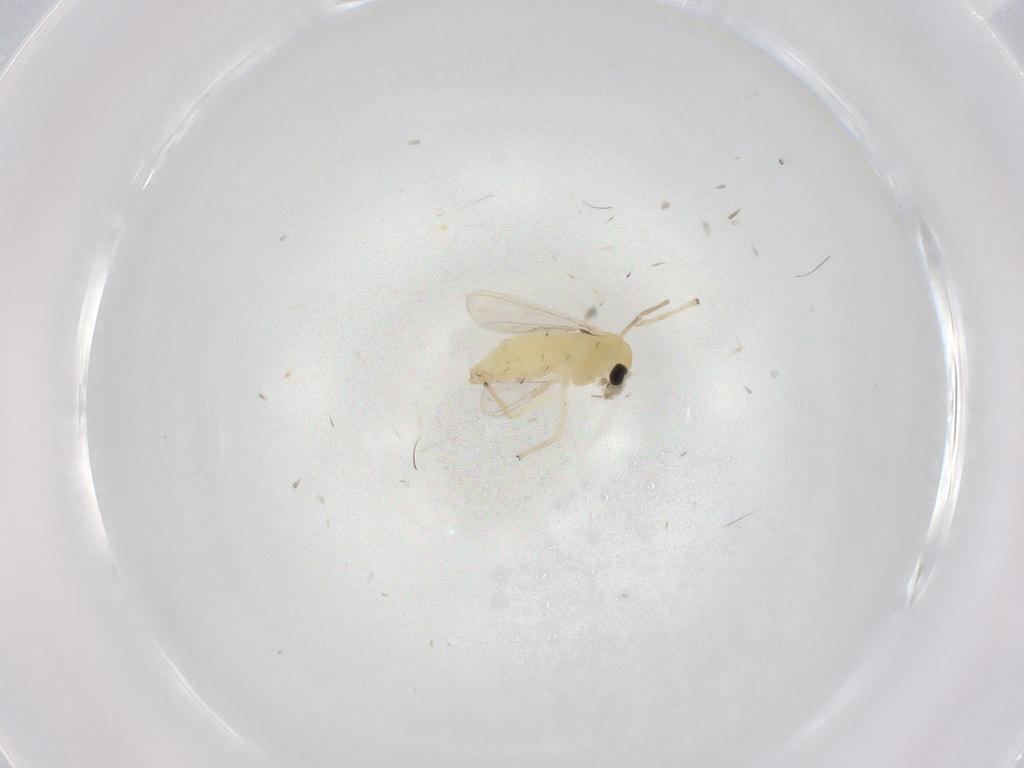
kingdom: Animalia
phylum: Arthropoda
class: Insecta
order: Diptera
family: Chironomidae
